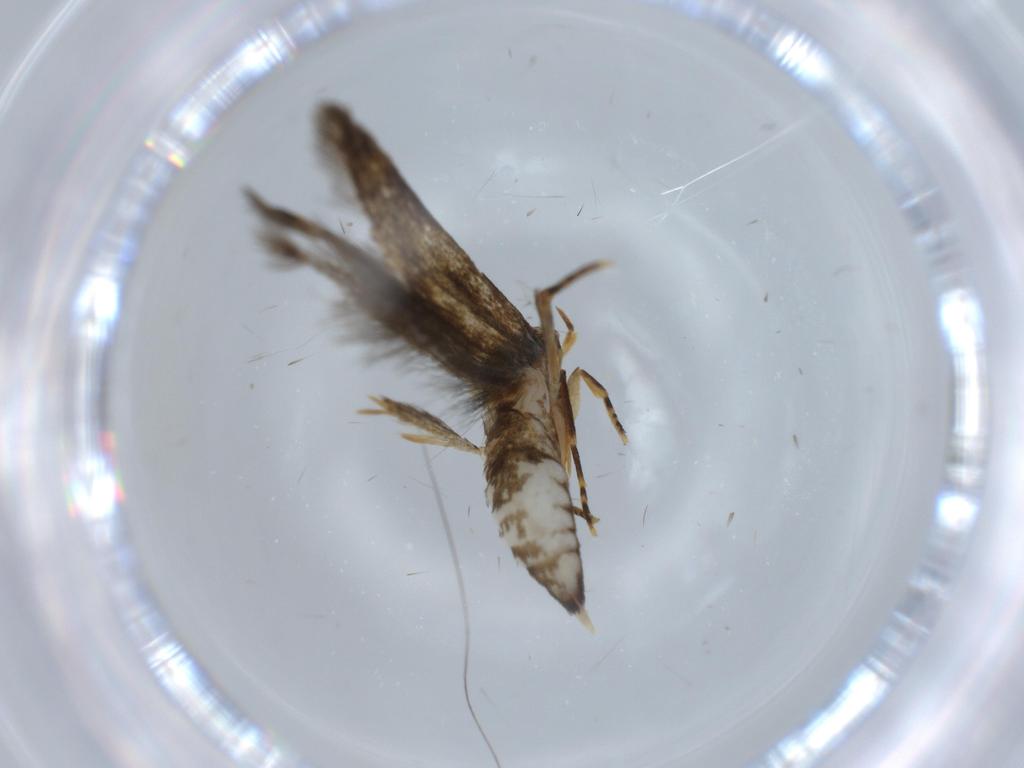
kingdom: Animalia
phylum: Arthropoda
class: Insecta
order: Lepidoptera
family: Tineidae
